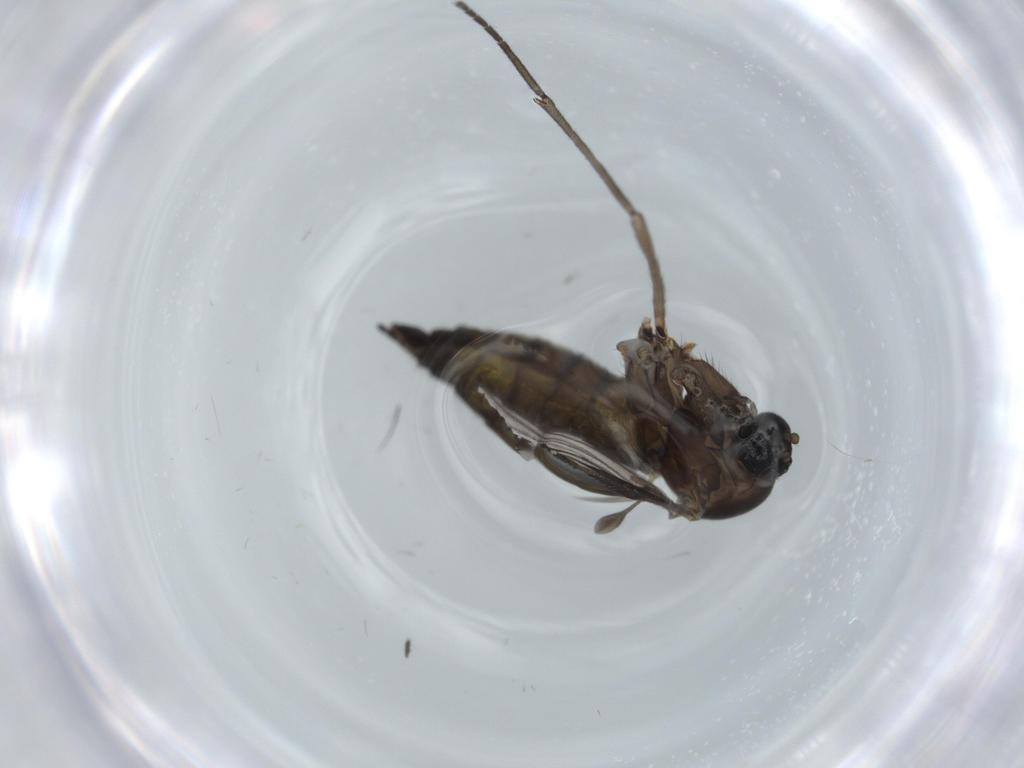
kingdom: Animalia
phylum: Arthropoda
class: Insecta
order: Diptera
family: Sciaridae
